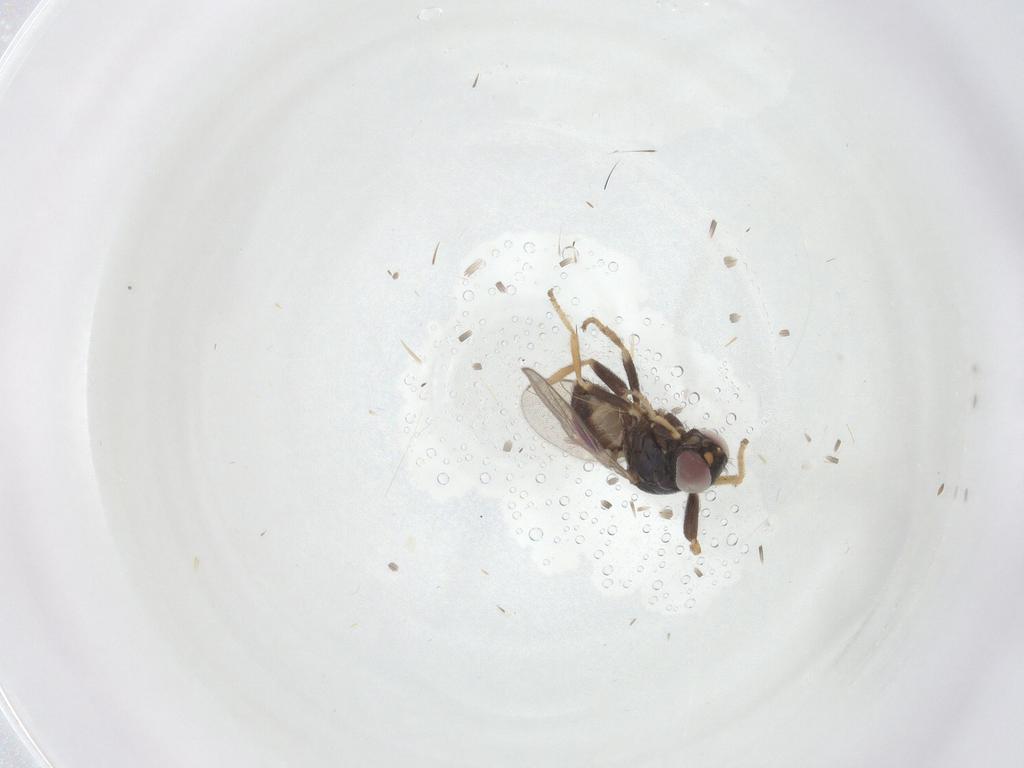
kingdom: Animalia
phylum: Arthropoda
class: Insecta
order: Diptera
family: Chloropidae
